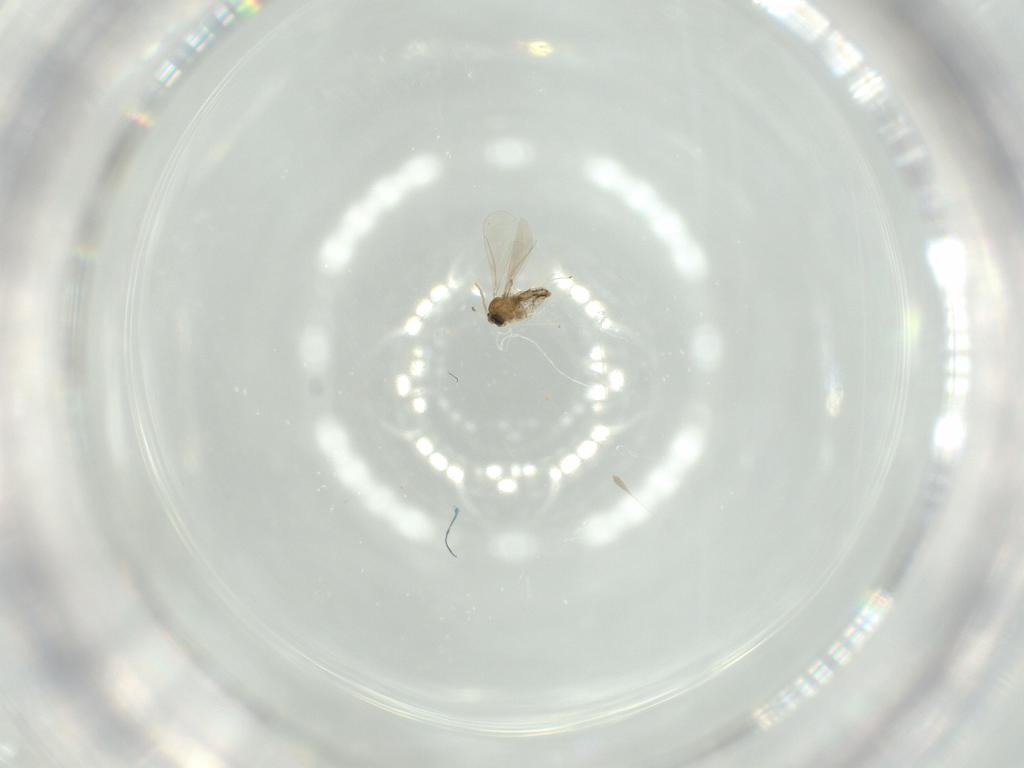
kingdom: Animalia
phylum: Arthropoda
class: Insecta
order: Diptera
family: Cecidomyiidae
